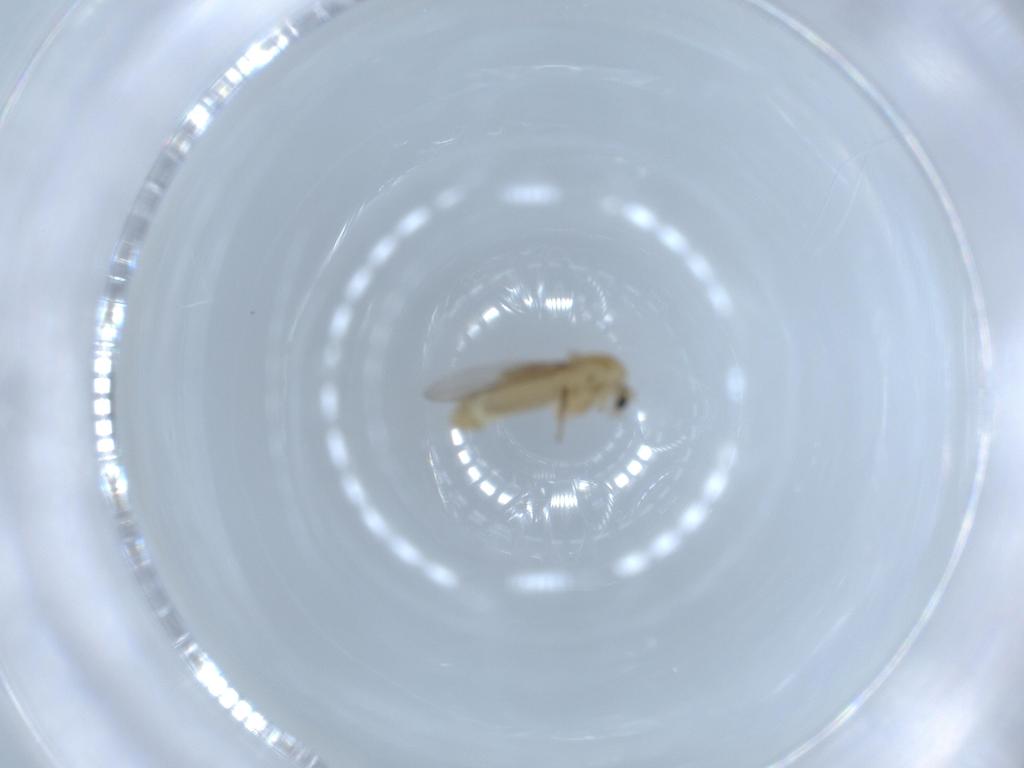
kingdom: Animalia
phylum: Arthropoda
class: Insecta
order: Diptera
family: Chironomidae
